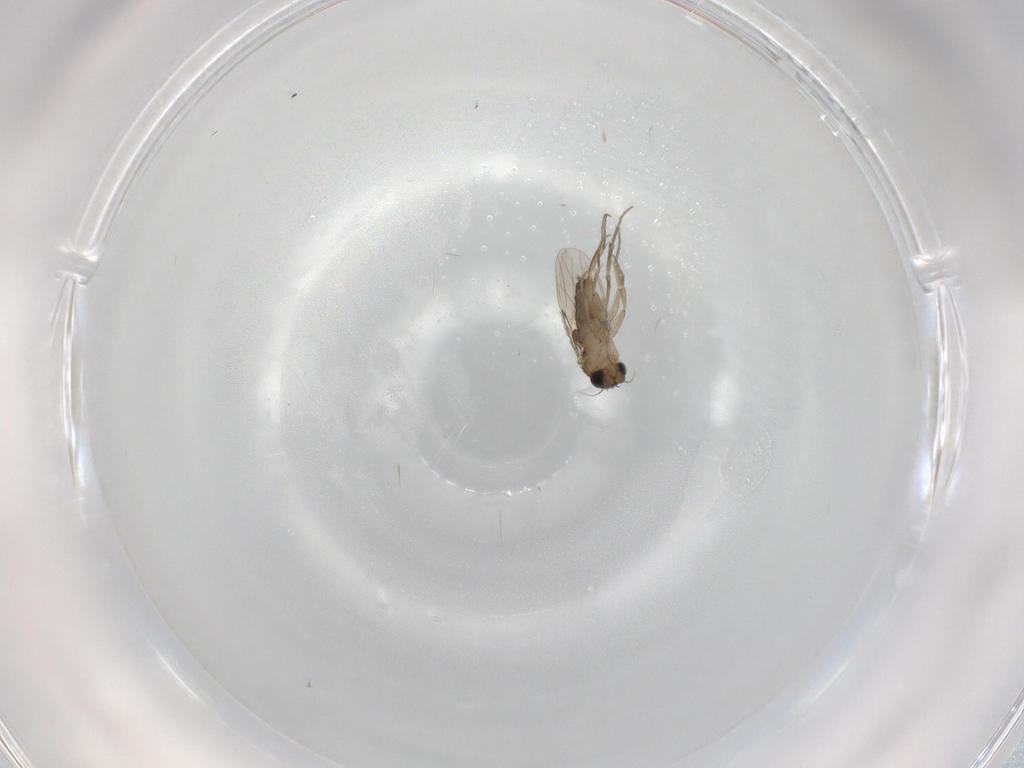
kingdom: Animalia
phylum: Arthropoda
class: Insecta
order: Diptera
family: Phoridae
